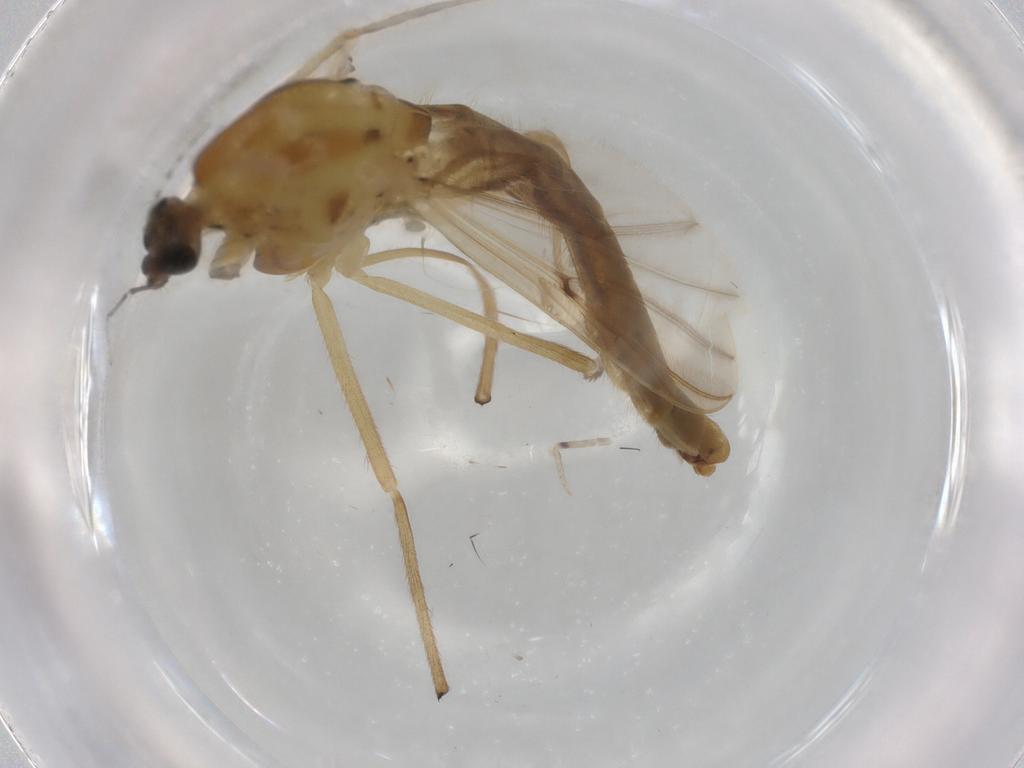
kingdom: Animalia
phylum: Arthropoda
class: Insecta
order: Diptera
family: Chironomidae
